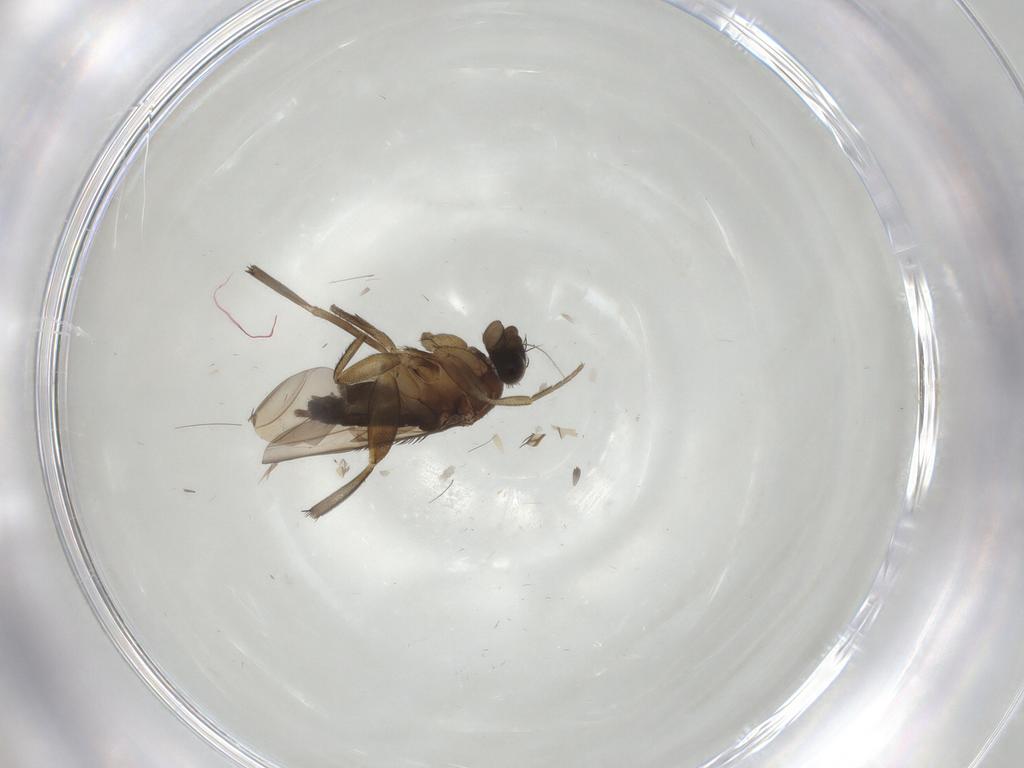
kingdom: Animalia
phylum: Arthropoda
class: Insecta
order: Diptera
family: Phoridae
